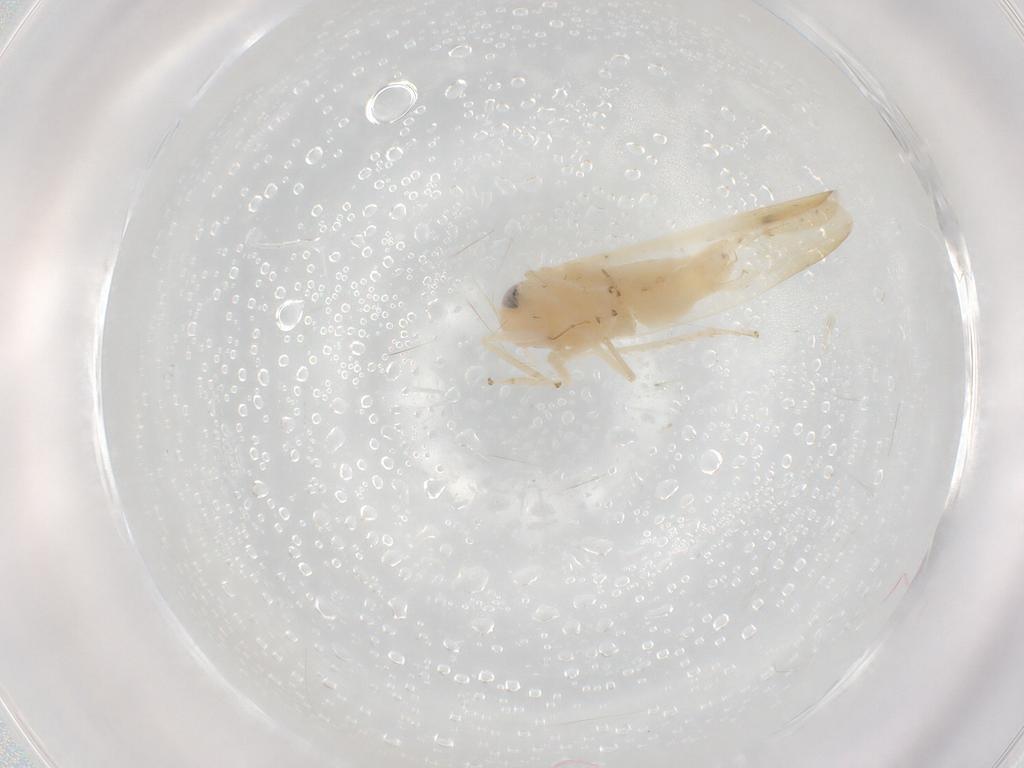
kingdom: Animalia
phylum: Arthropoda
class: Insecta
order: Hemiptera
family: Cicadellidae
